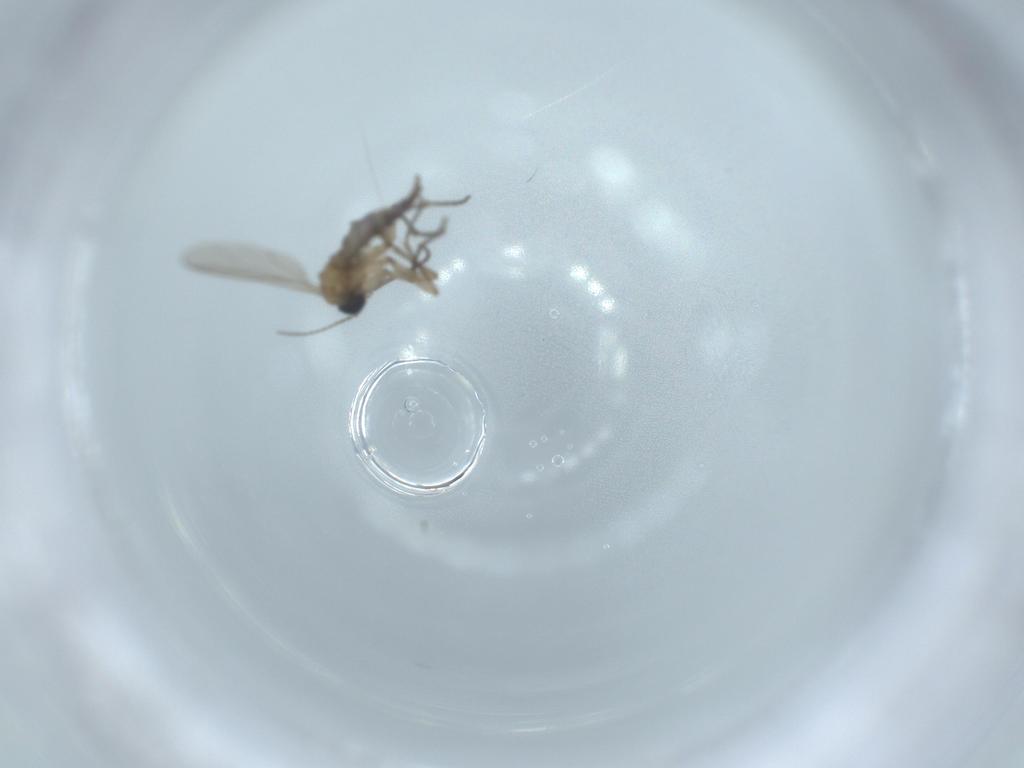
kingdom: Animalia
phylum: Arthropoda
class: Insecta
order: Diptera
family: Sciaridae
